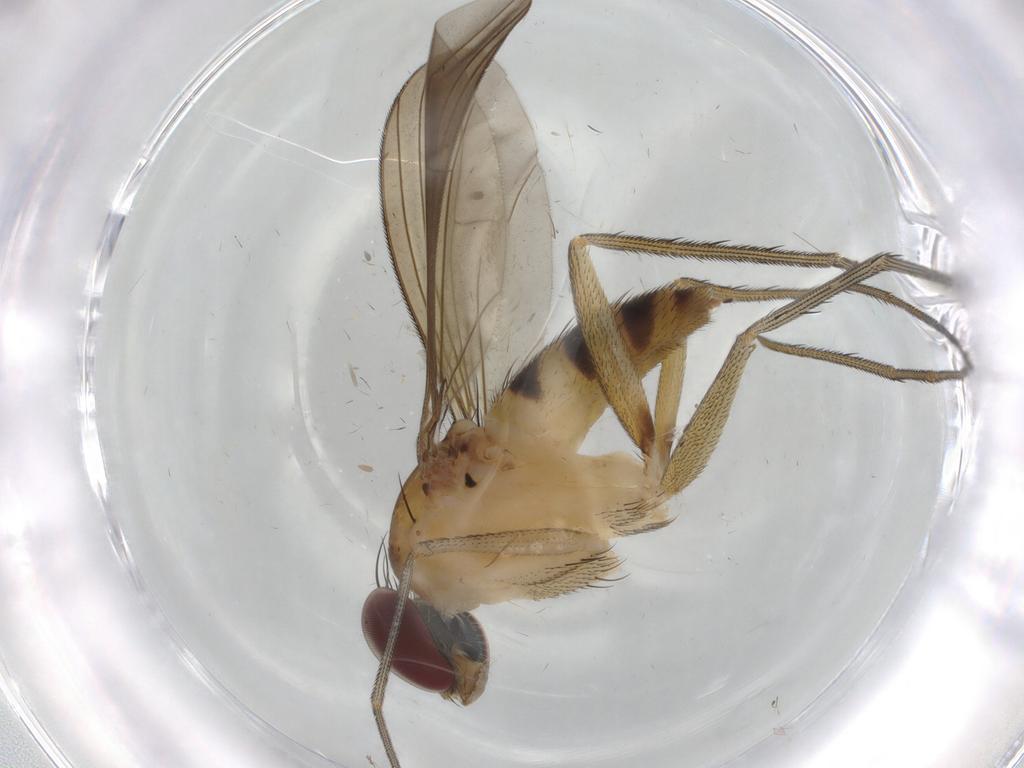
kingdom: Animalia
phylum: Arthropoda
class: Insecta
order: Diptera
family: Dolichopodidae
